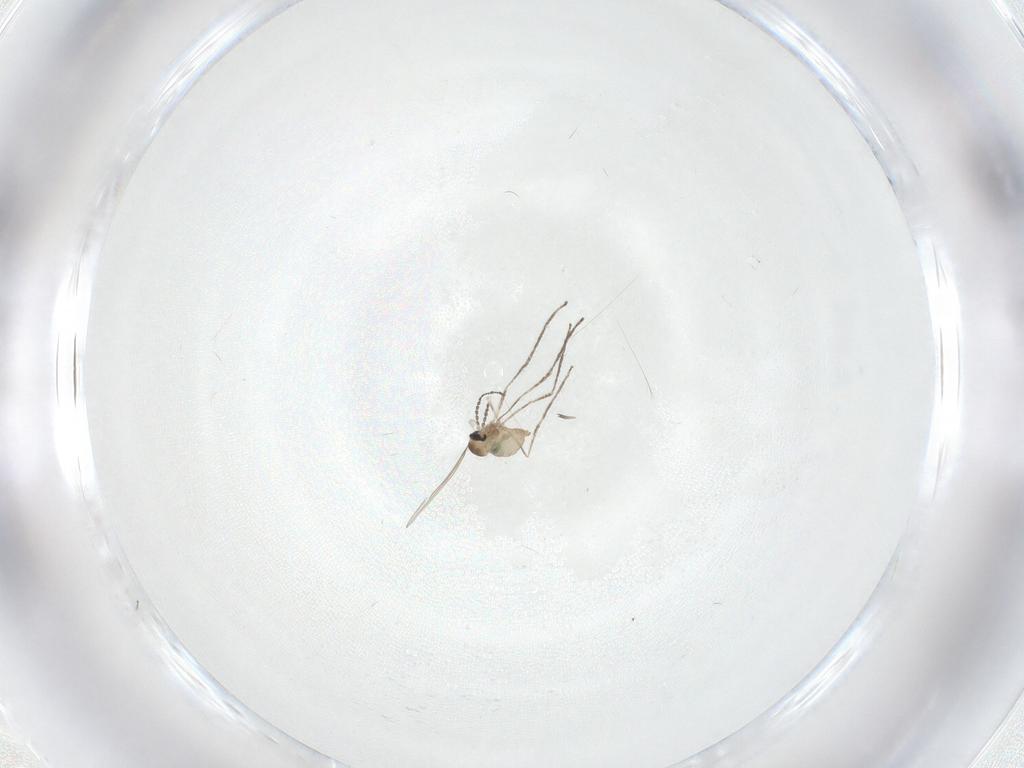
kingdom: Animalia
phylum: Arthropoda
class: Insecta
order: Diptera
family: Cecidomyiidae
